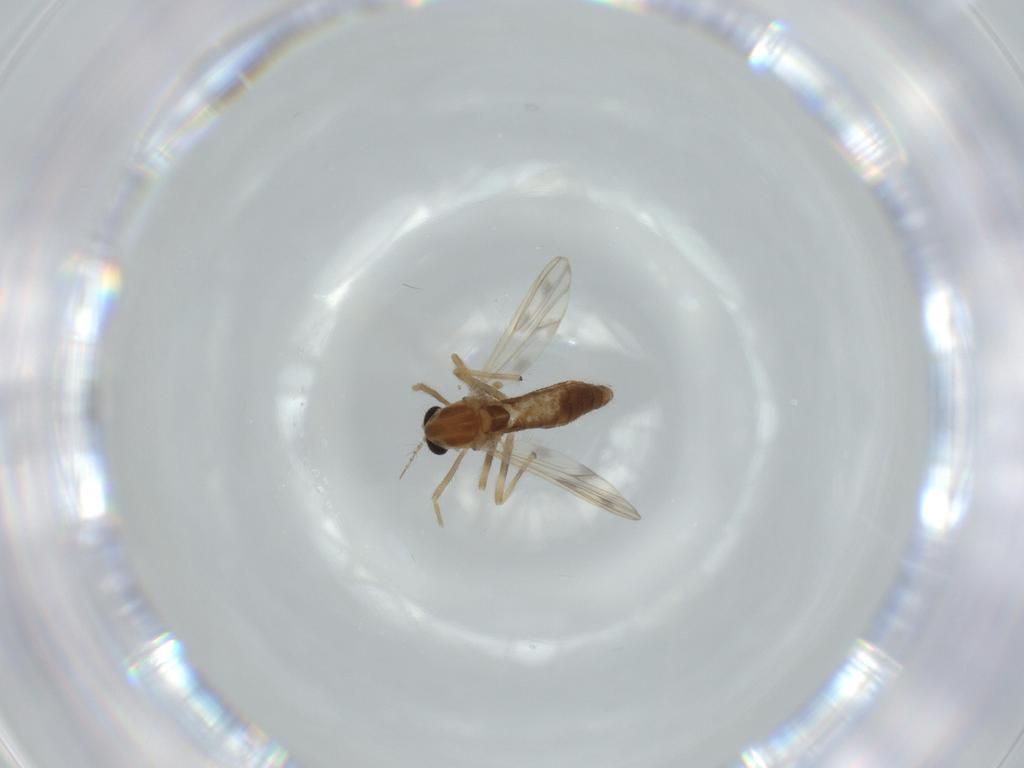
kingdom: Animalia
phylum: Arthropoda
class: Insecta
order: Diptera
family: Chironomidae
